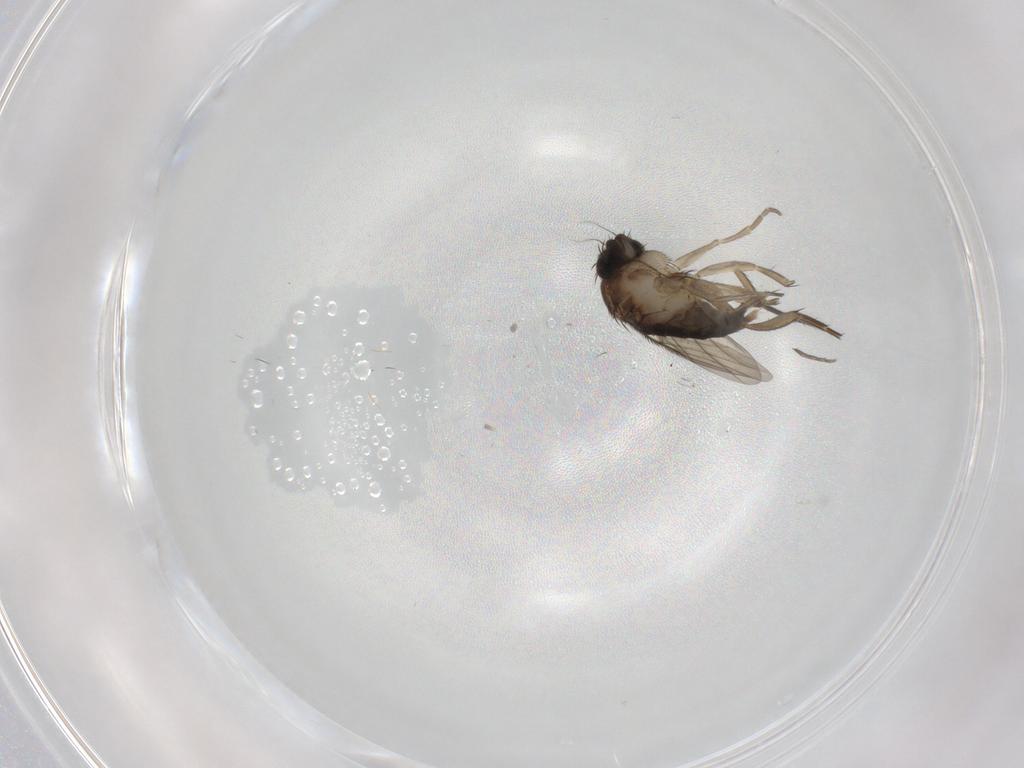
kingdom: Animalia
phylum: Arthropoda
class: Insecta
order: Diptera
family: Phoridae
